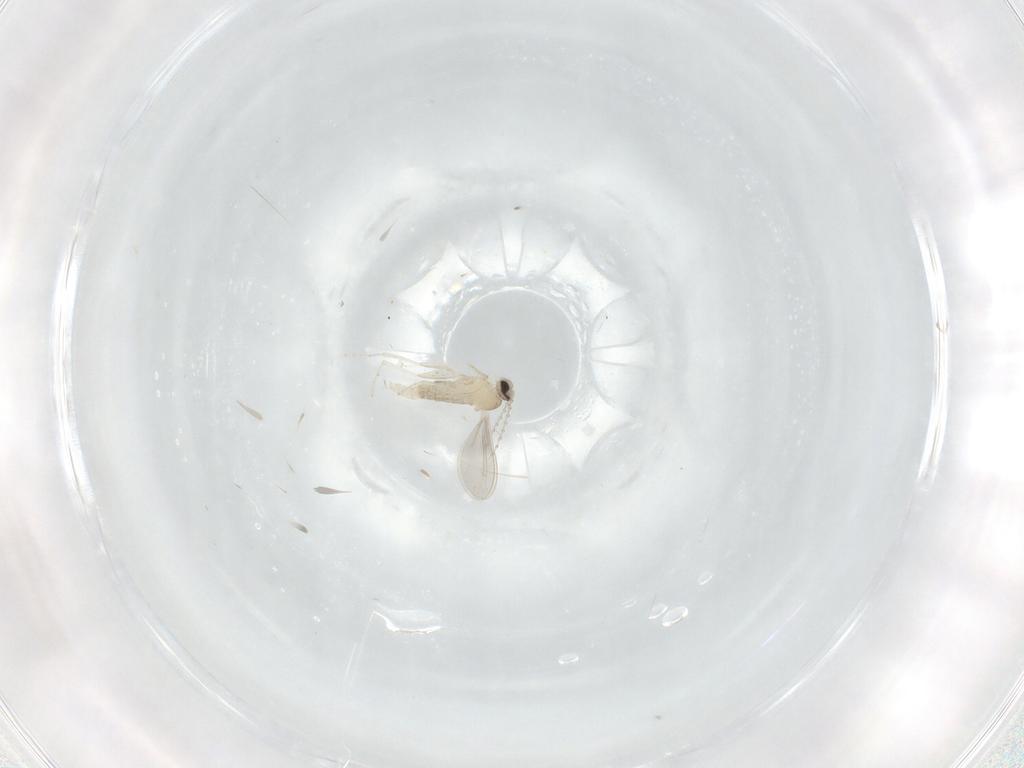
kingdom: Animalia
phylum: Arthropoda
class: Insecta
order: Diptera
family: Cecidomyiidae
